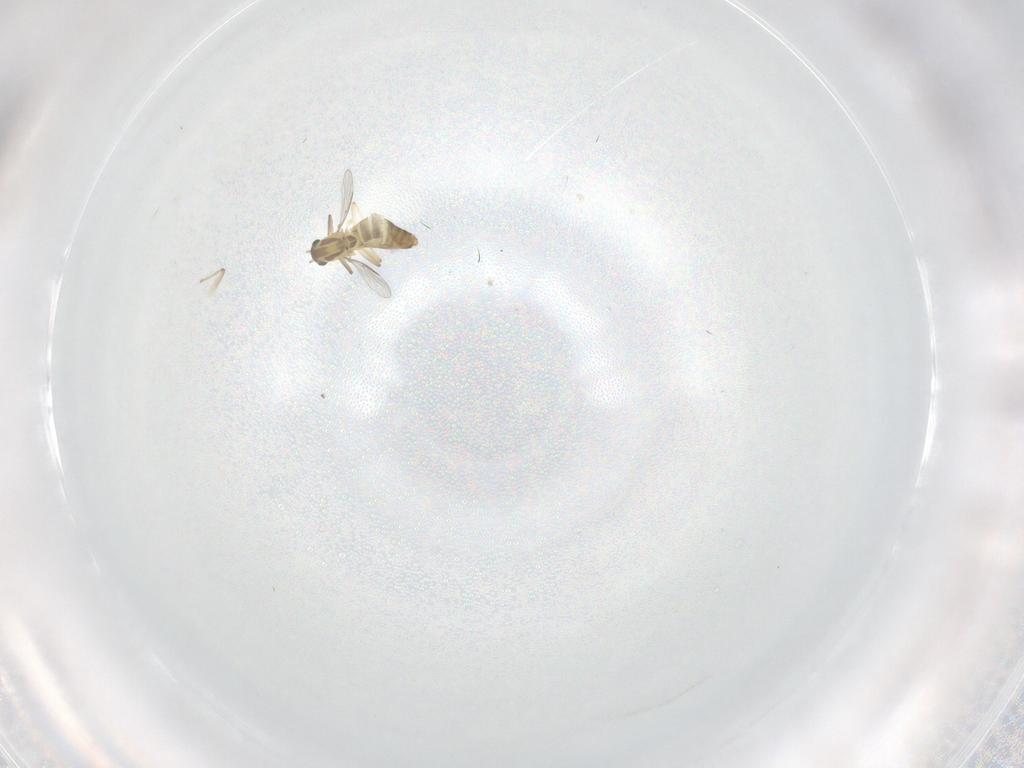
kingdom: Animalia
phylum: Arthropoda
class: Insecta
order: Diptera
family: Chironomidae
